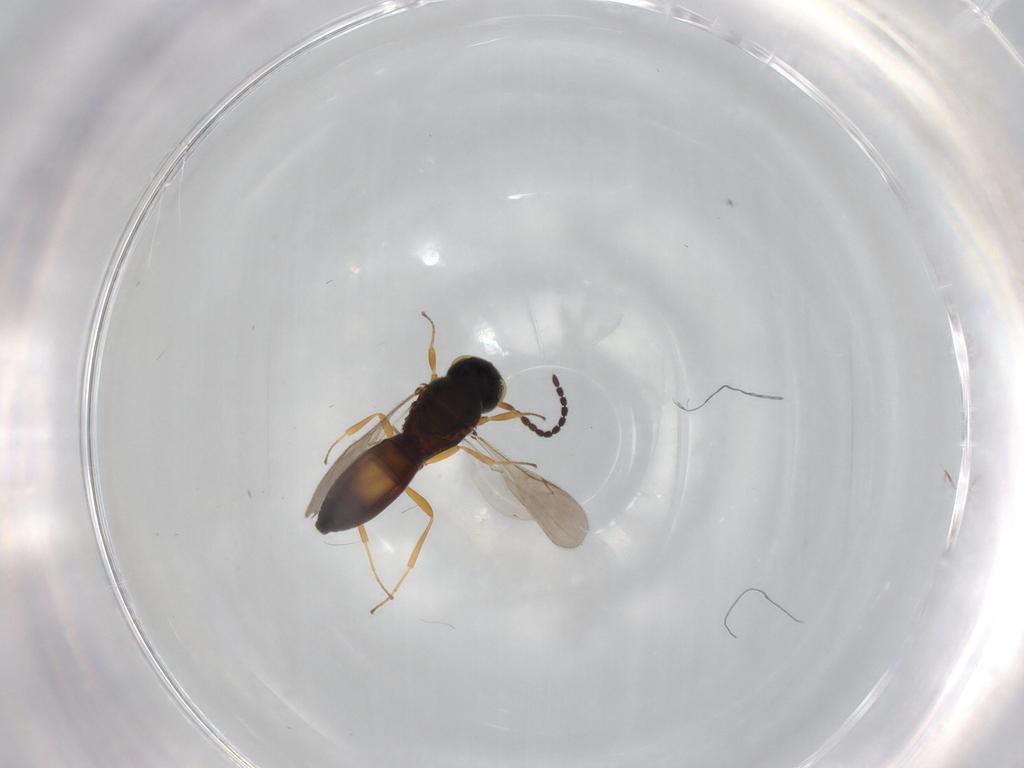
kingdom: Animalia
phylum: Arthropoda
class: Insecta
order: Hymenoptera
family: Scelionidae
